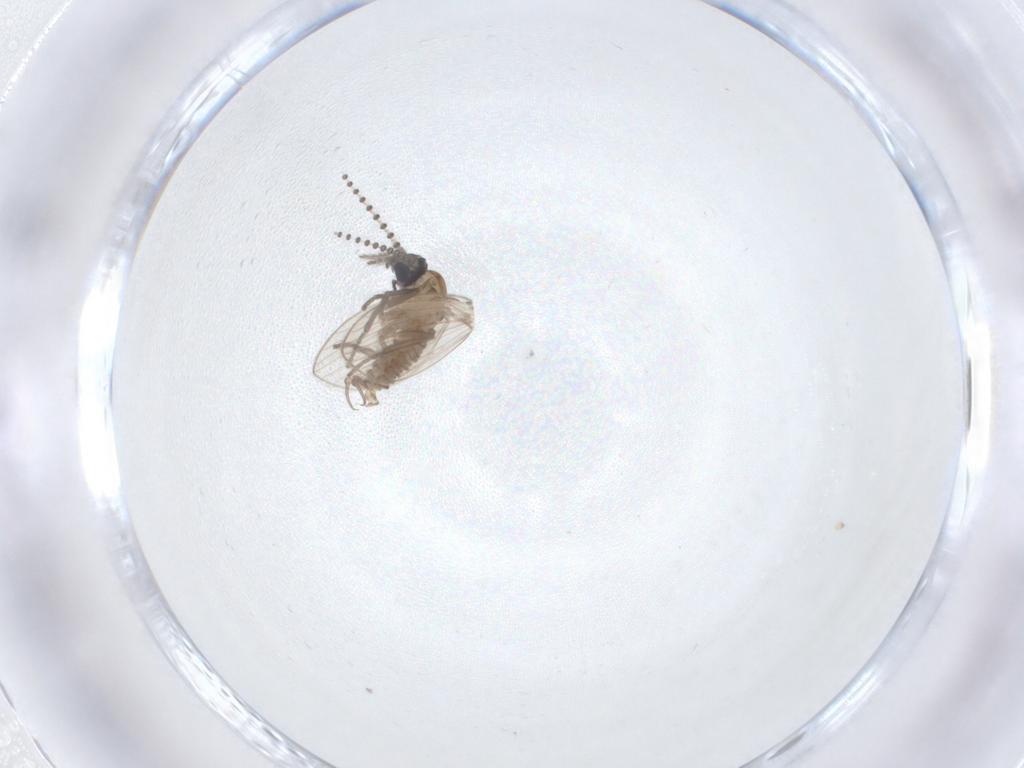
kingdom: Animalia
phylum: Arthropoda
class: Insecta
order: Diptera
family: Psychodidae
